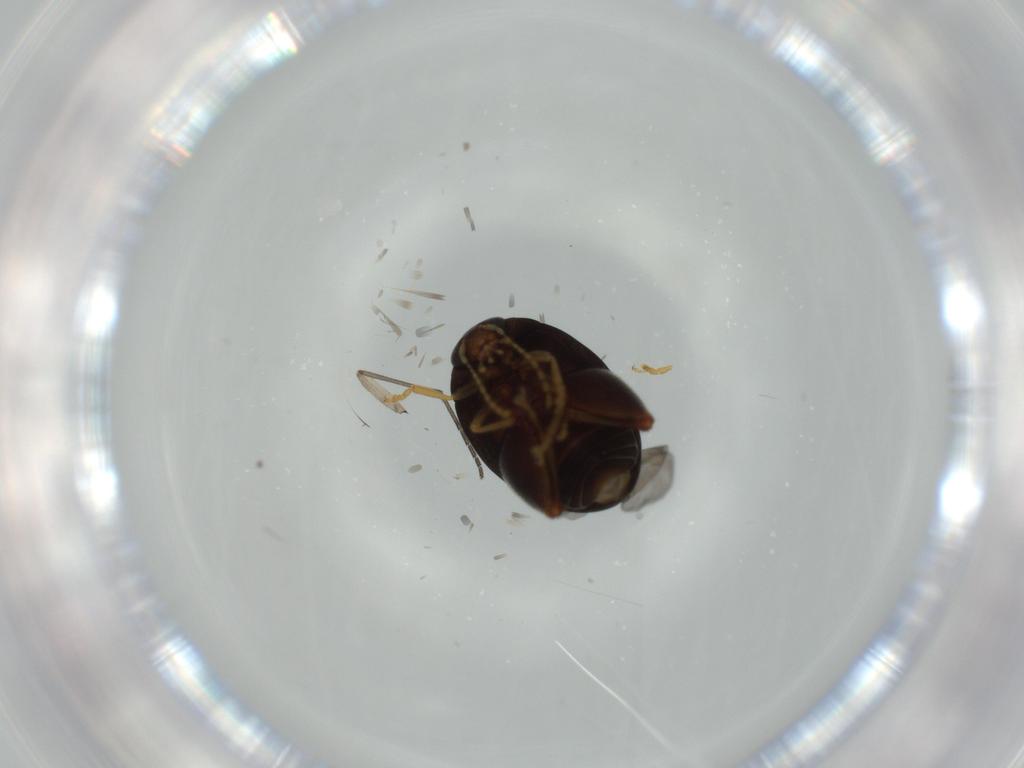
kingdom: Animalia
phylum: Arthropoda
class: Insecta
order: Coleoptera
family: Chrysomelidae
